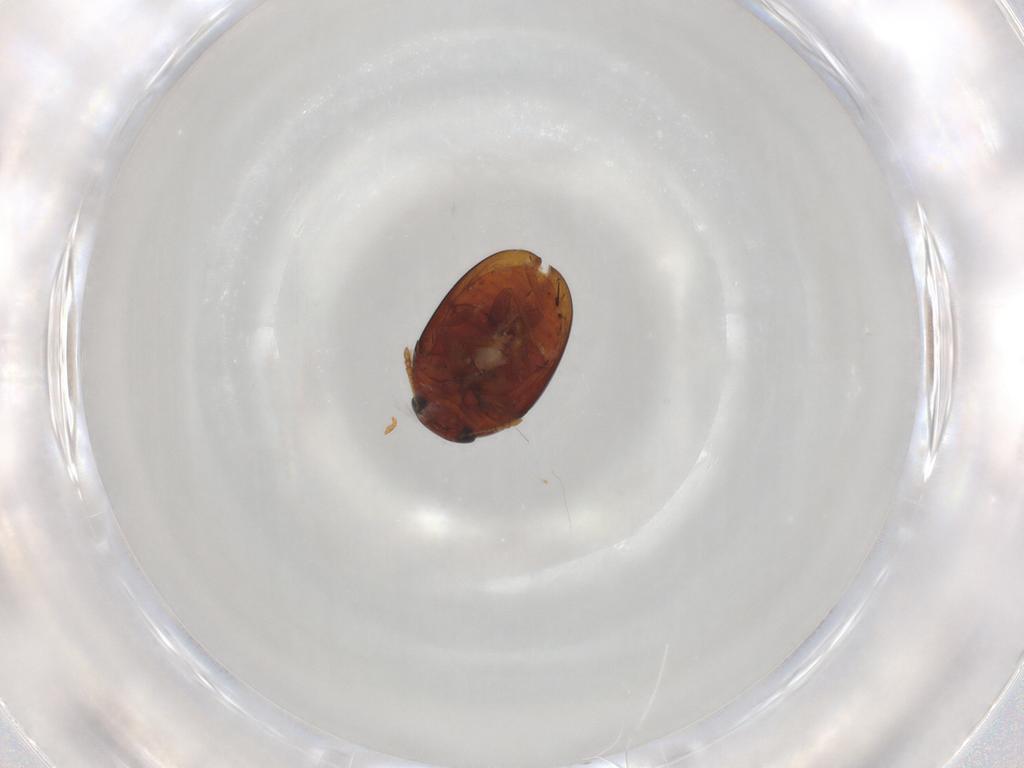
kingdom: Animalia
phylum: Arthropoda
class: Insecta
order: Coleoptera
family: Phalacridae
